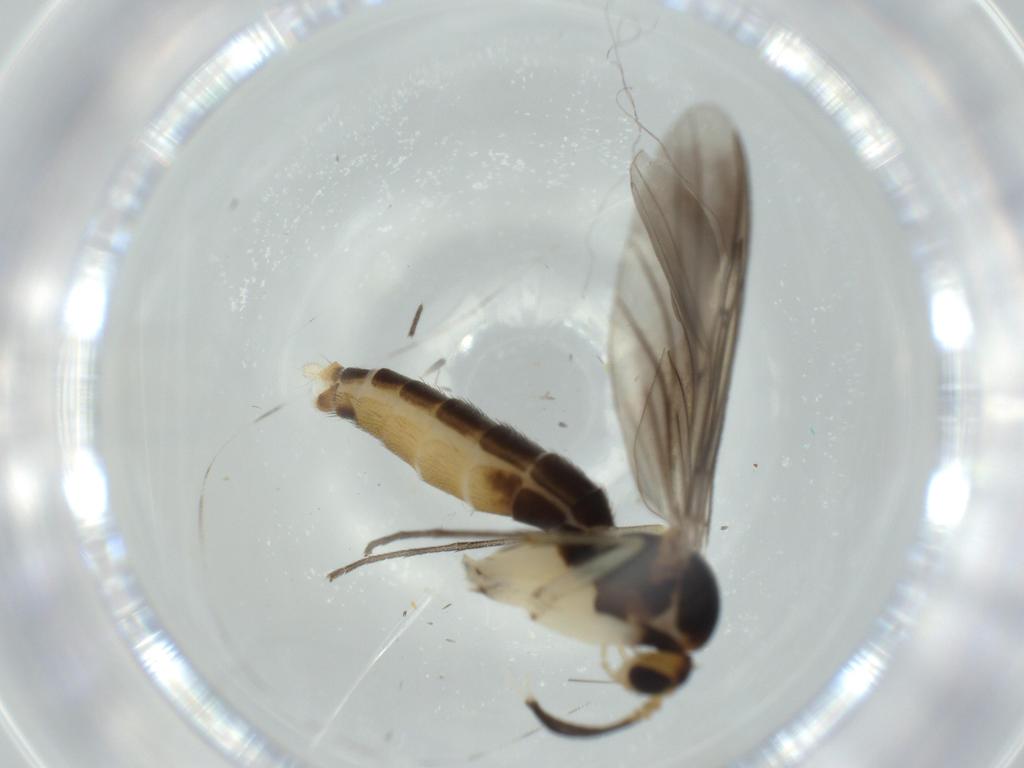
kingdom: Animalia
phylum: Arthropoda
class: Insecta
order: Diptera
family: Mycetophilidae
